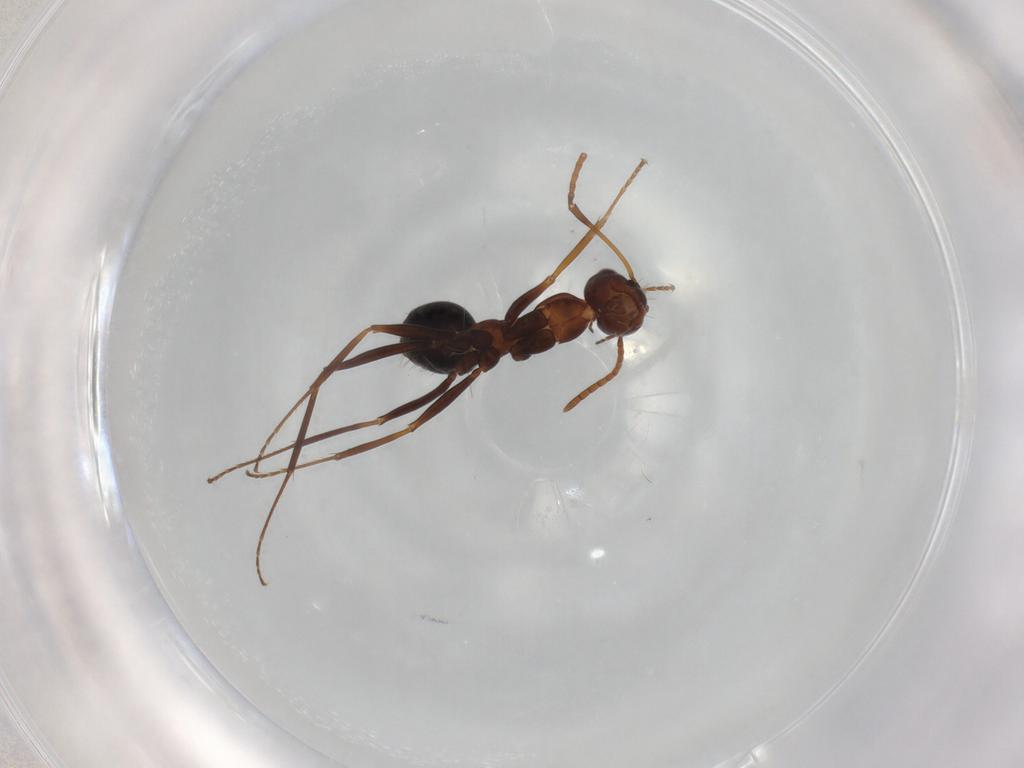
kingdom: Animalia
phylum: Arthropoda
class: Insecta
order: Hymenoptera
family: Formicidae
